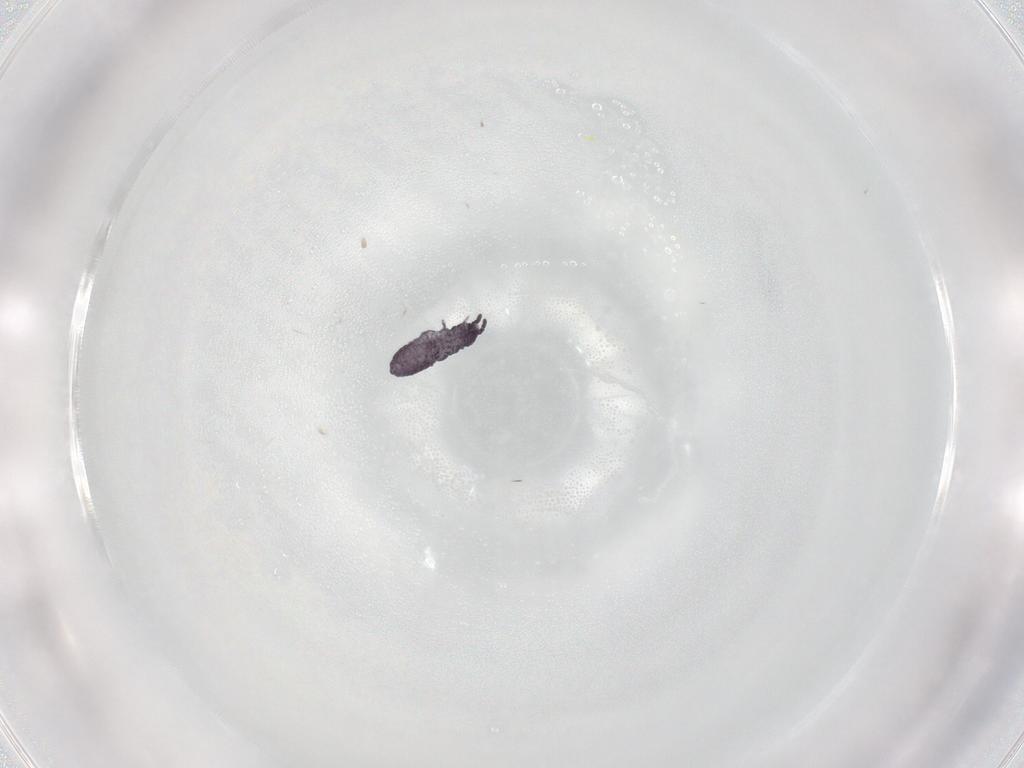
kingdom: Animalia
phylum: Arthropoda
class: Collembola
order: Poduromorpha
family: Brachystomellidae
